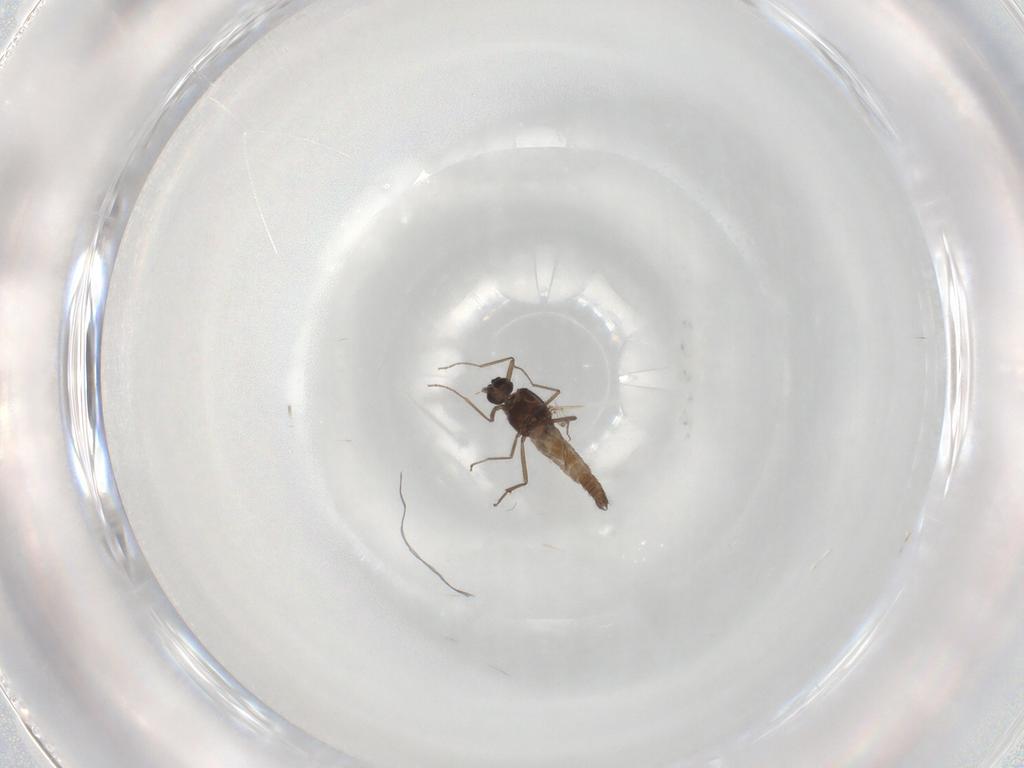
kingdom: Animalia
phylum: Arthropoda
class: Insecta
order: Diptera
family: Ceratopogonidae
